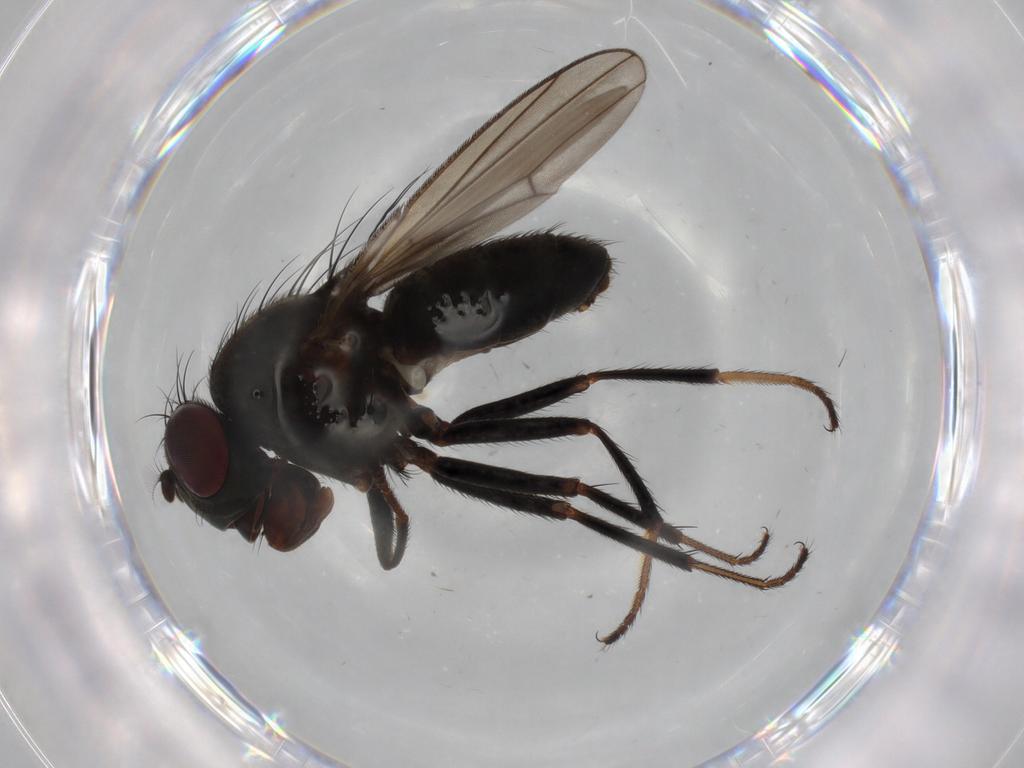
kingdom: Animalia
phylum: Arthropoda
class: Insecta
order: Diptera
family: Ephydridae
